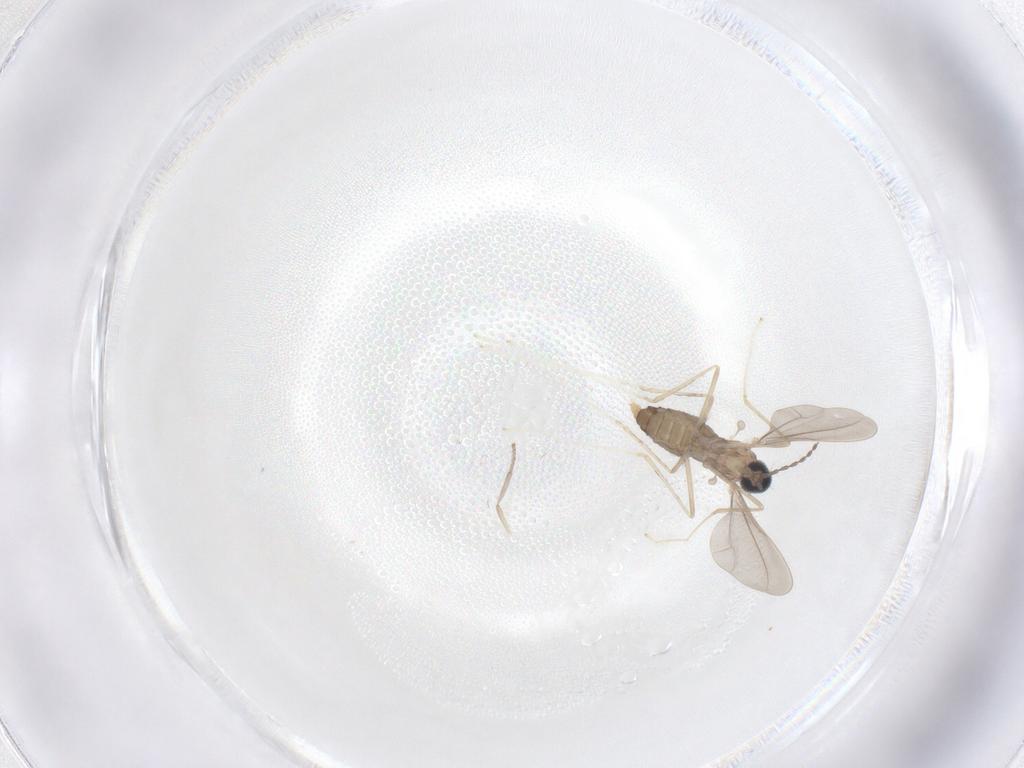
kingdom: Animalia
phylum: Arthropoda
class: Insecta
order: Diptera
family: Cecidomyiidae
